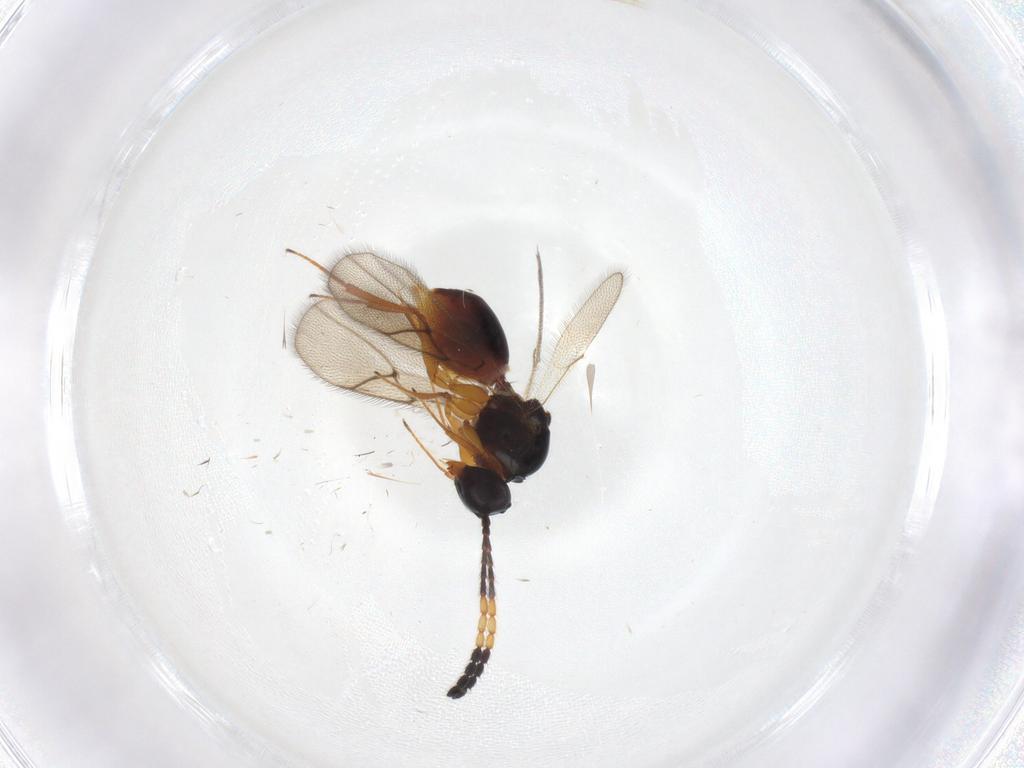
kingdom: Animalia
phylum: Arthropoda
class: Insecta
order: Hymenoptera
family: Figitidae
